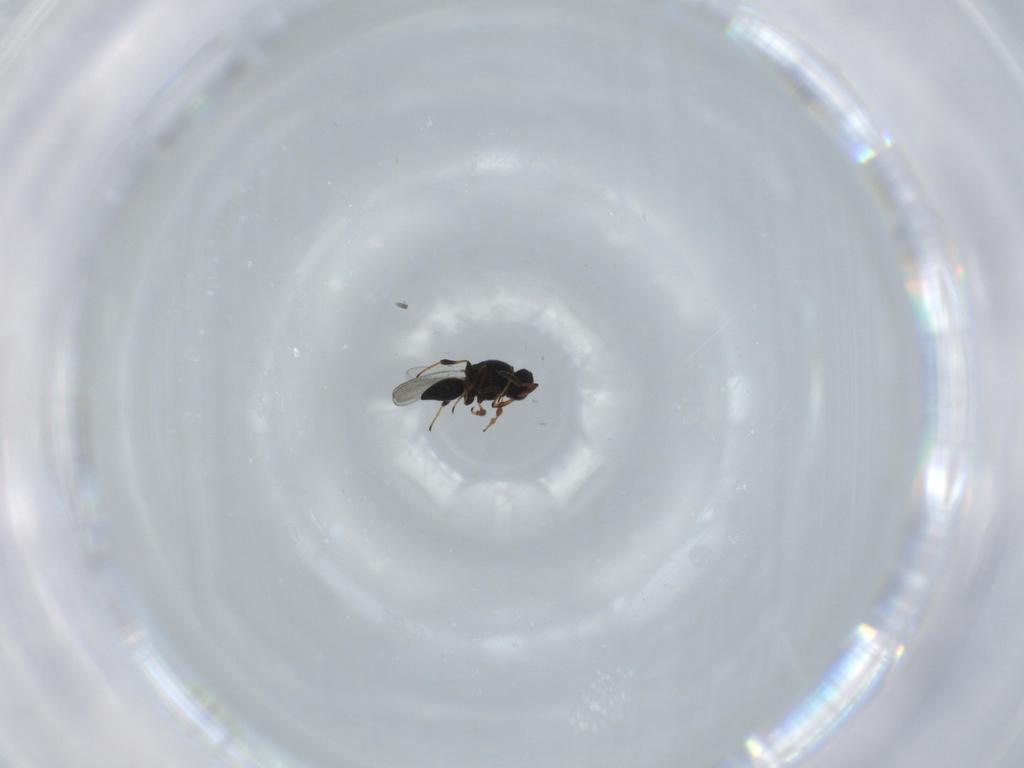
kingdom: Animalia
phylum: Arthropoda
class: Insecta
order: Hymenoptera
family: Platygastridae
